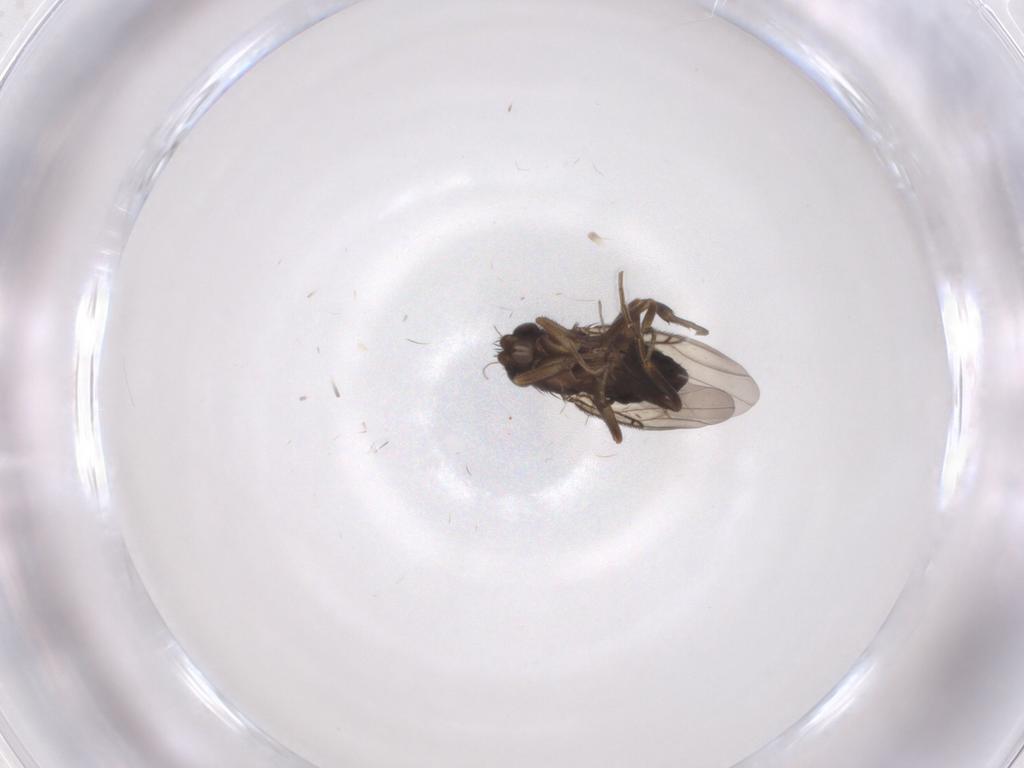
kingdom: Animalia
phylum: Arthropoda
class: Insecta
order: Diptera
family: Phoridae
